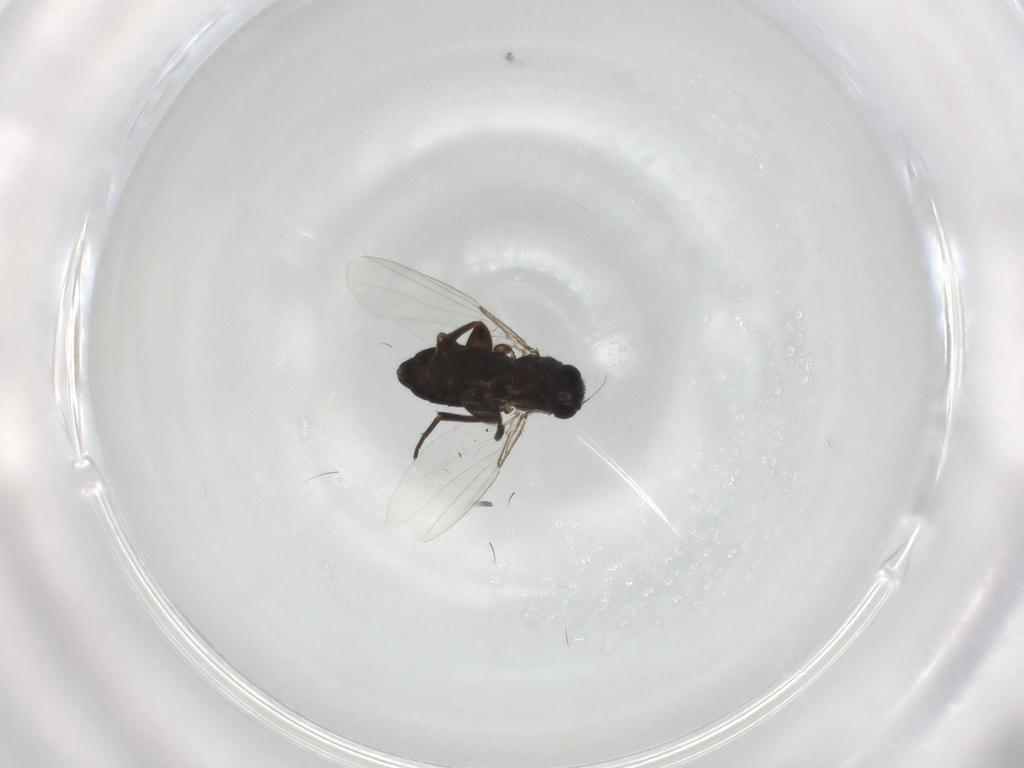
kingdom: Animalia
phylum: Arthropoda
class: Insecta
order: Diptera
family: Phoridae
